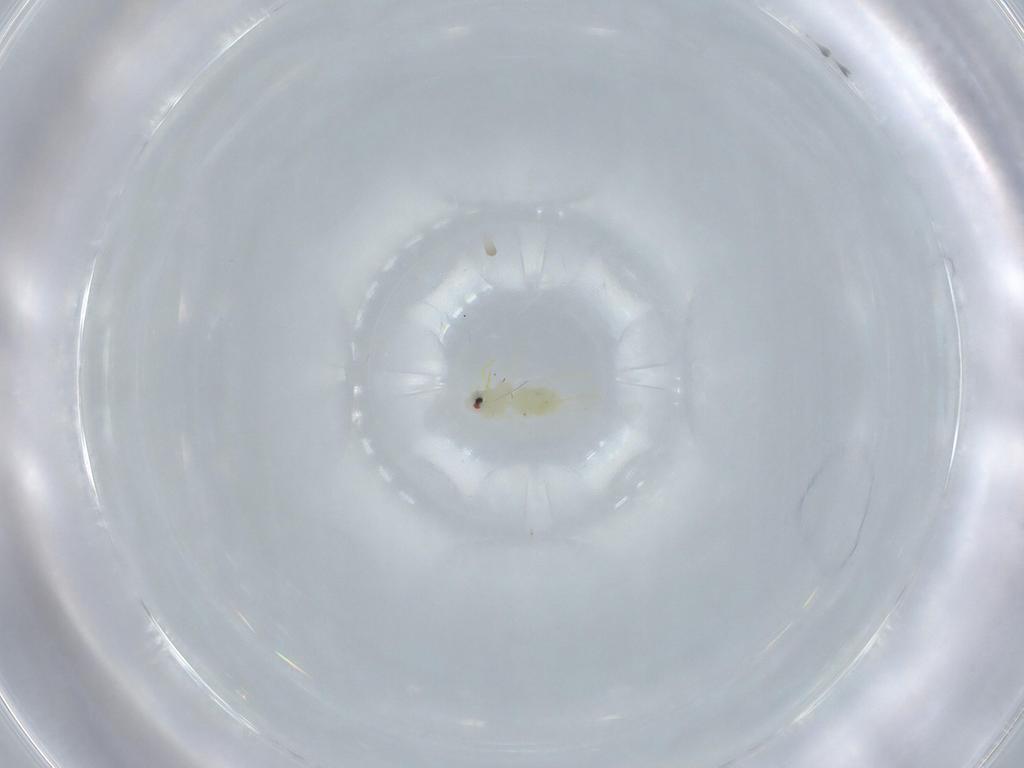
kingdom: Animalia
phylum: Arthropoda
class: Insecta
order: Hemiptera
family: Aleyrodidae
